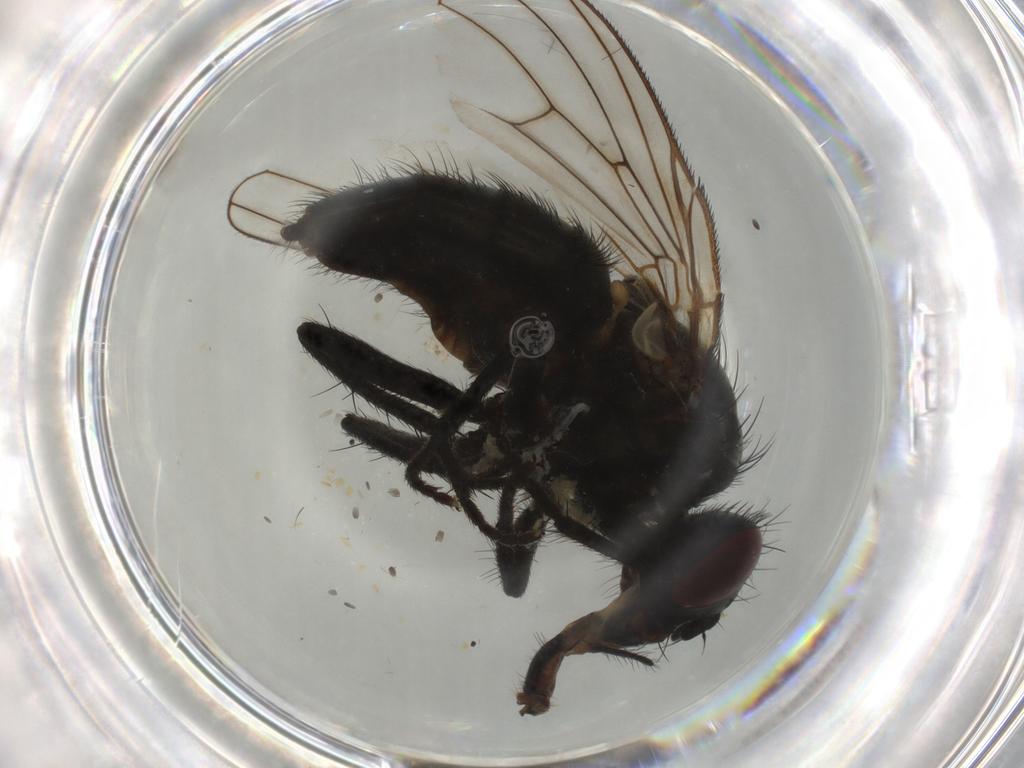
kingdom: Animalia
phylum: Arthropoda
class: Insecta
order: Diptera
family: Muscidae
